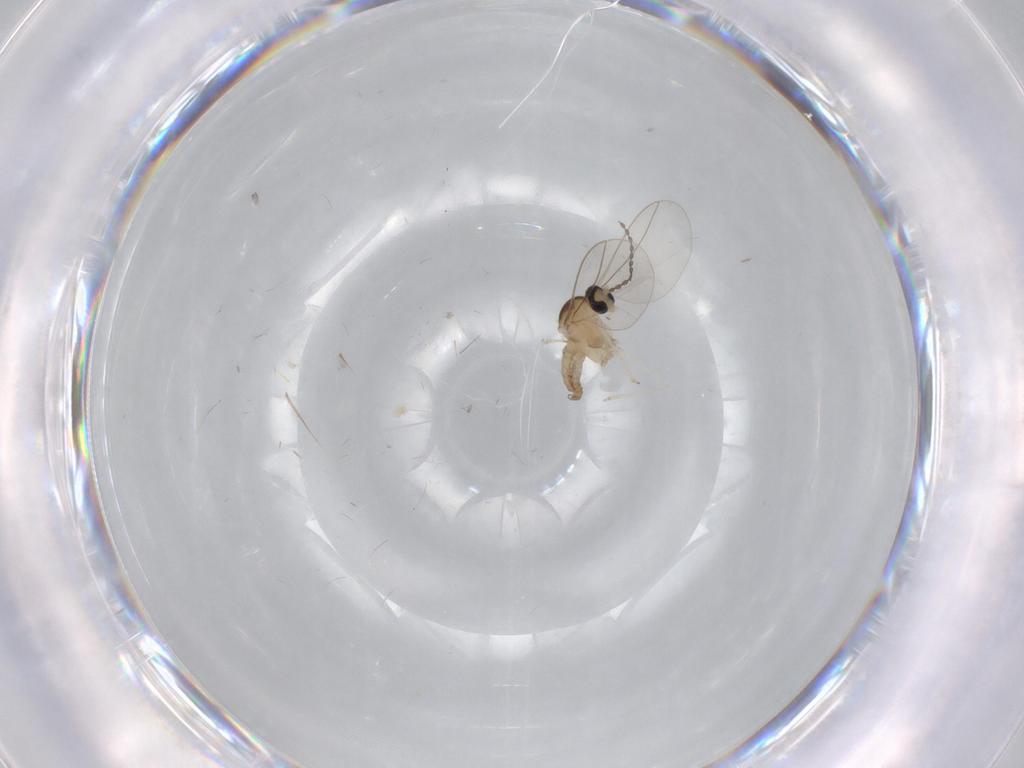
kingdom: Animalia
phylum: Arthropoda
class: Insecta
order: Diptera
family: Cecidomyiidae
